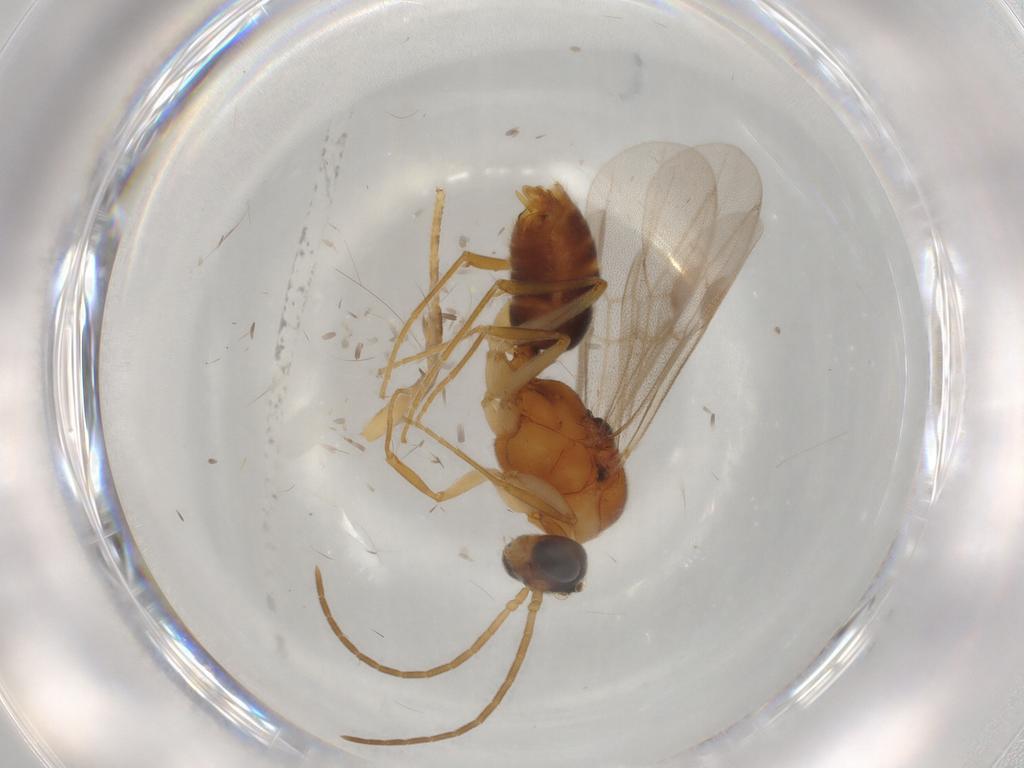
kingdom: Animalia
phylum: Arthropoda
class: Insecta
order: Hymenoptera
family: Formicidae
